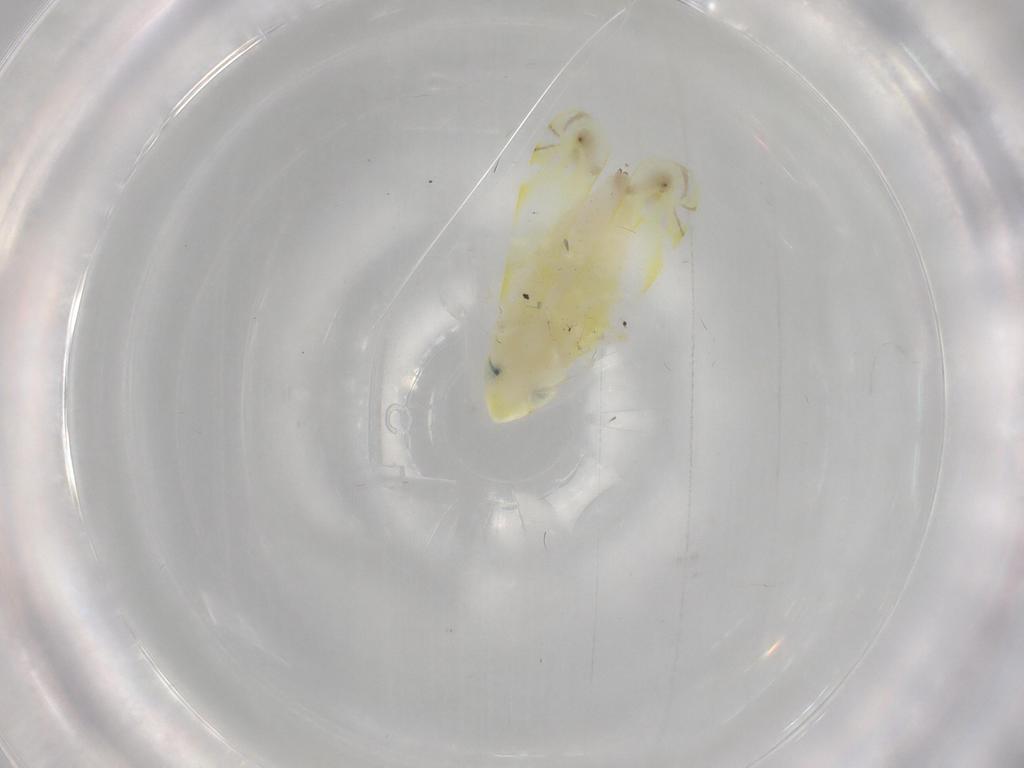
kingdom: Animalia
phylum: Arthropoda
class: Insecta
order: Hemiptera
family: Cicadellidae
